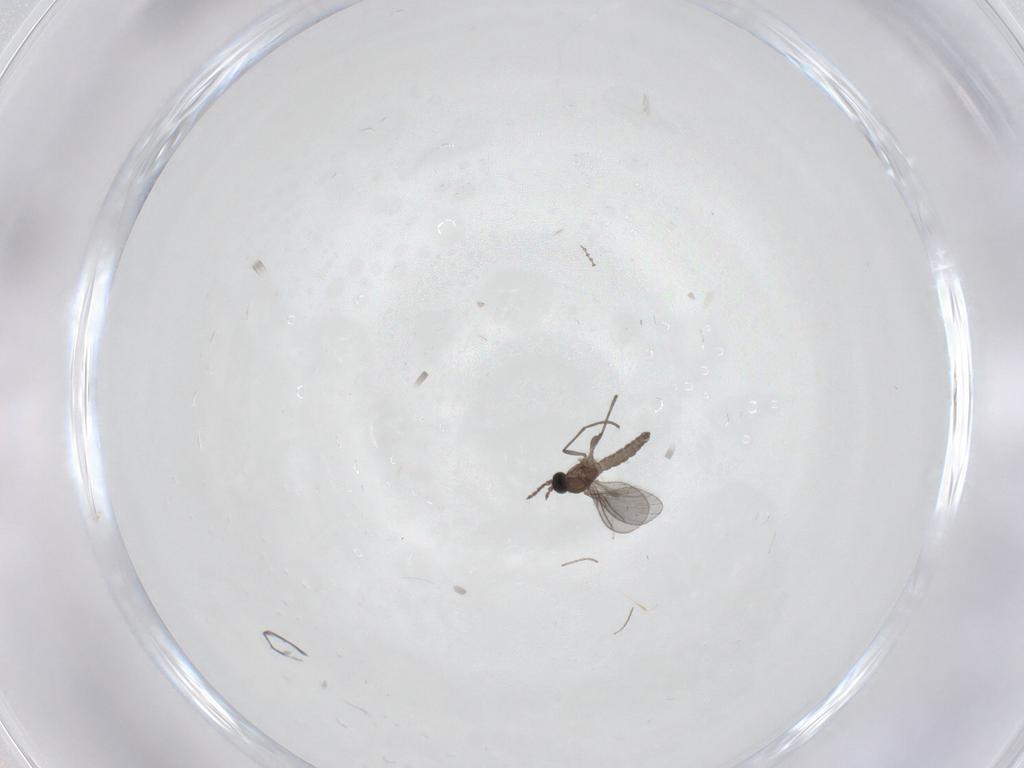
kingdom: Animalia
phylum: Arthropoda
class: Insecta
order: Diptera
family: Sciaridae
